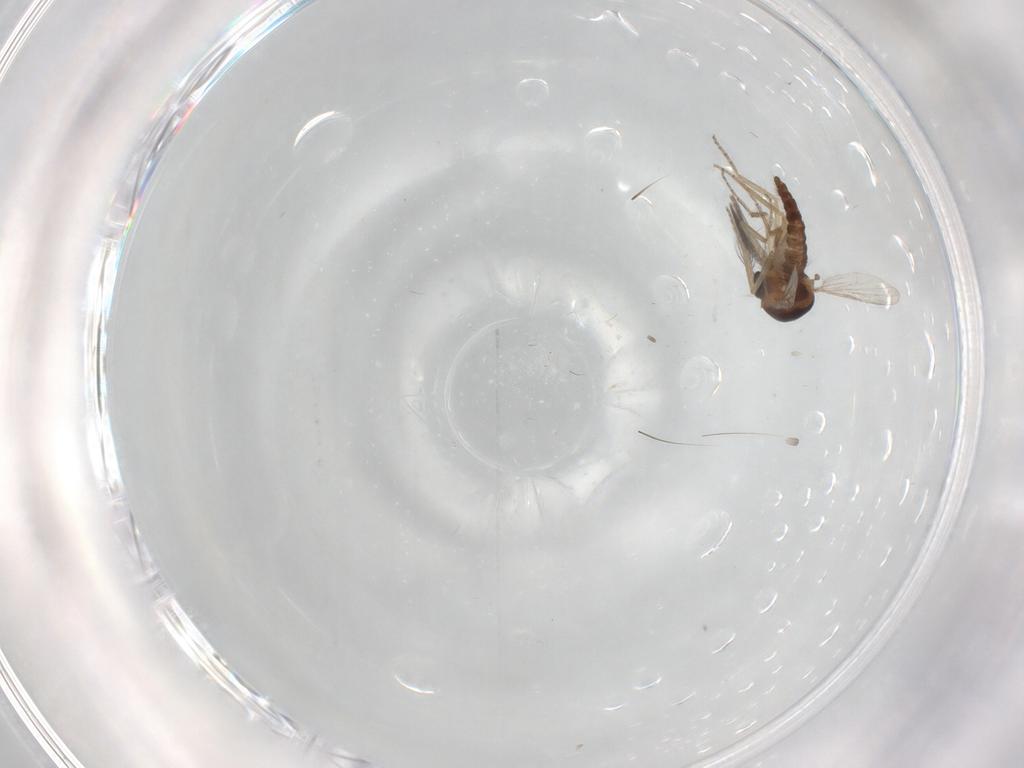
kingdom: Animalia
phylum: Arthropoda
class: Insecta
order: Diptera
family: Ceratopogonidae
